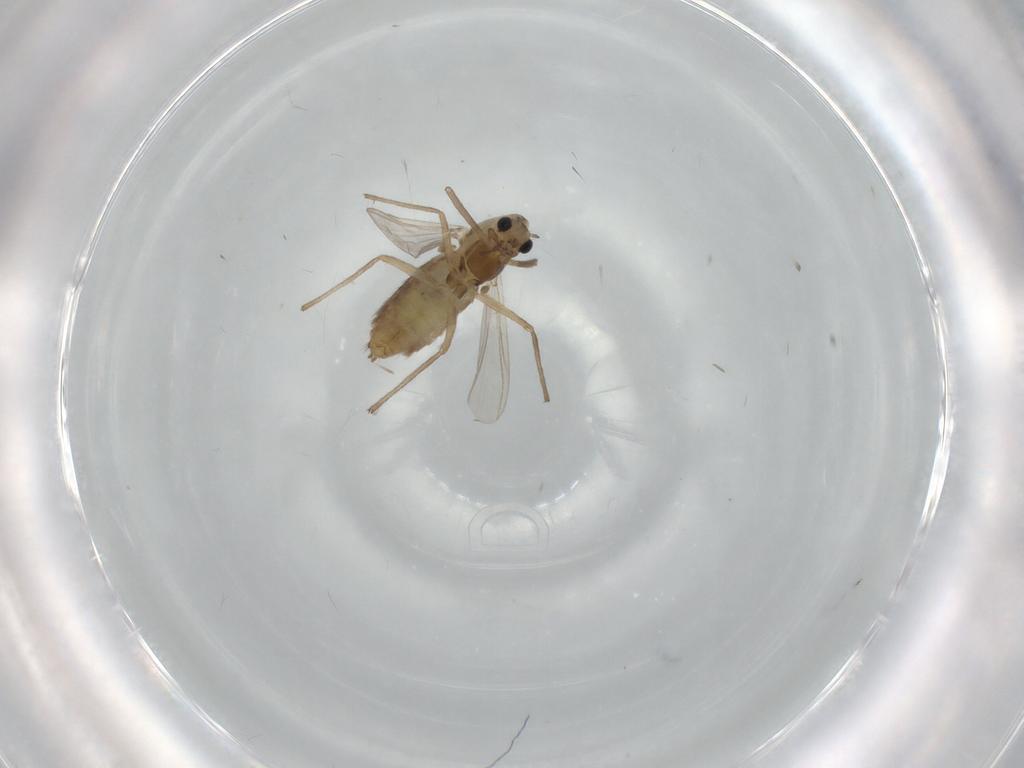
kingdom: Animalia
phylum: Arthropoda
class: Insecta
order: Diptera
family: Chironomidae
